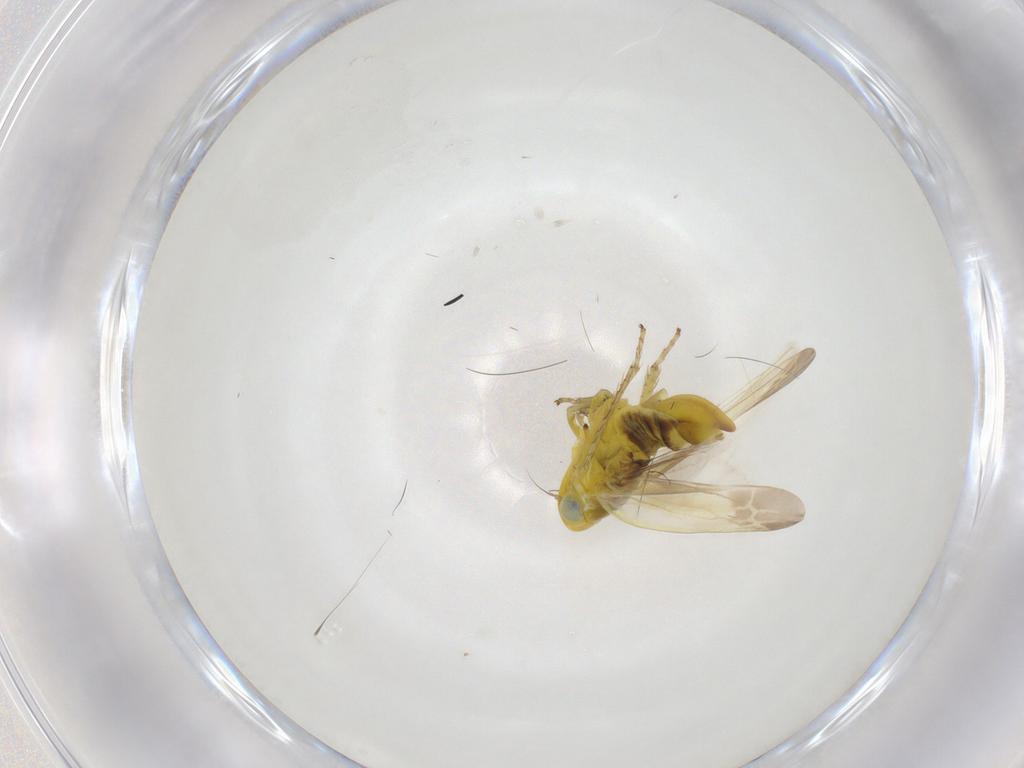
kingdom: Animalia
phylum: Arthropoda
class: Insecta
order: Hemiptera
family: Cicadellidae
